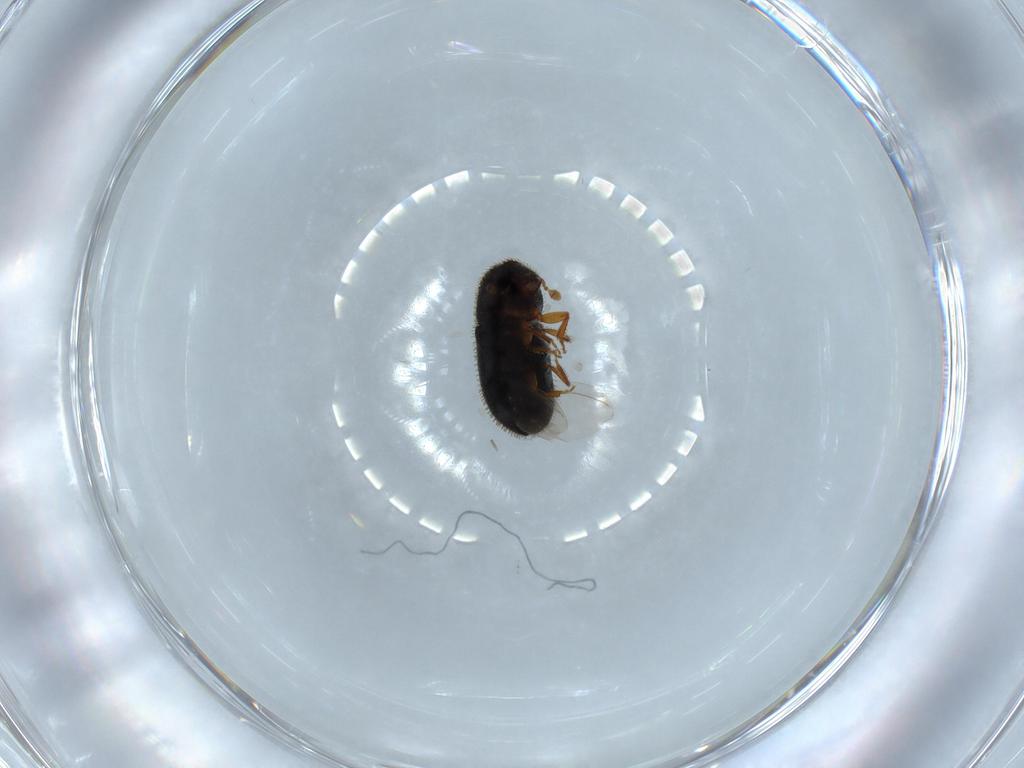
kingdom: Animalia
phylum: Arthropoda
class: Insecta
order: Coleoptera
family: Curculionidae
